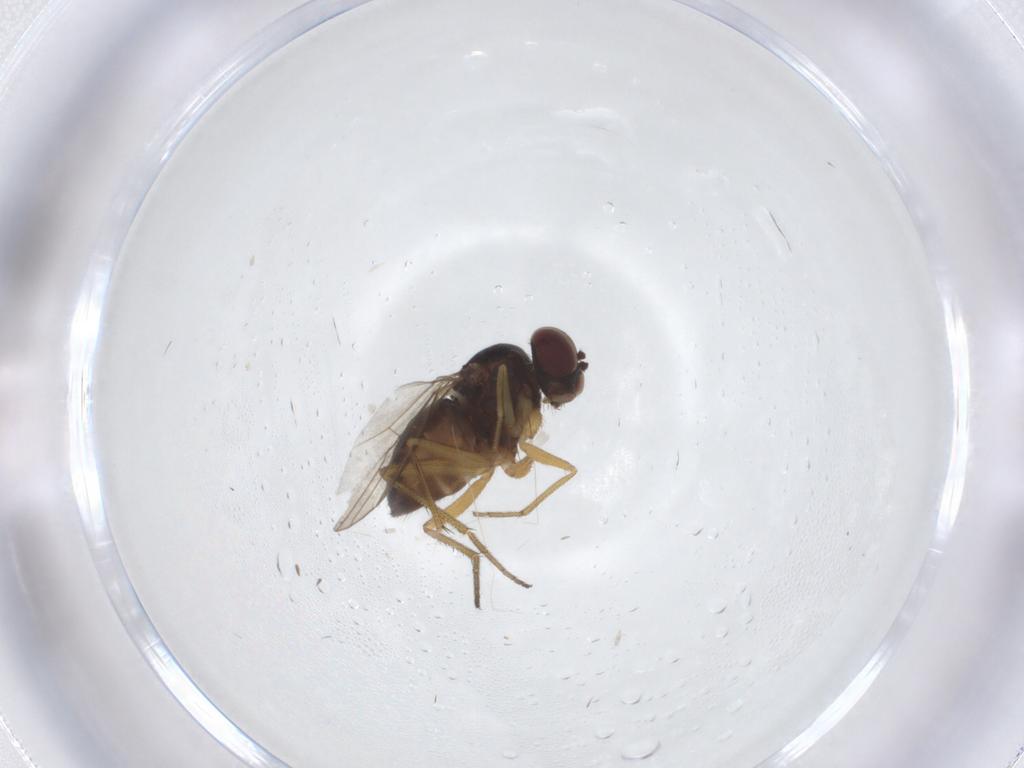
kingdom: Animalia
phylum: Arthropoda
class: Insecta
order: Diptera
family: Dolichopodidae
